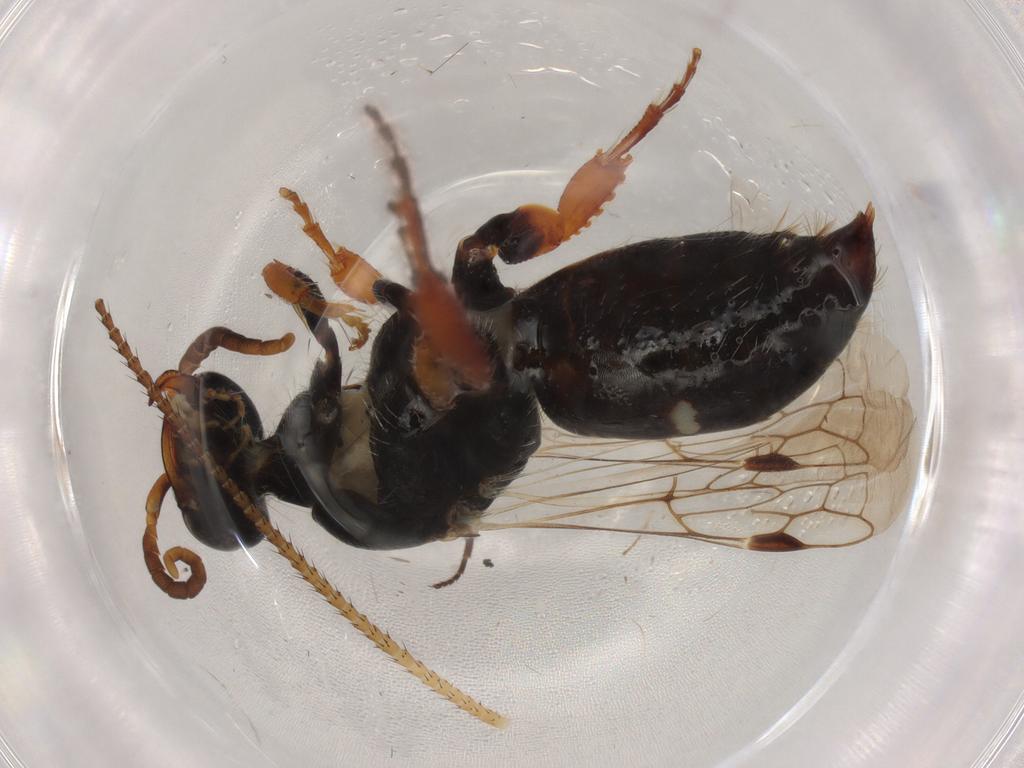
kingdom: Animalia
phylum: Arthropoda
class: Insecta
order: Hymenoptera
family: Thynnidae
